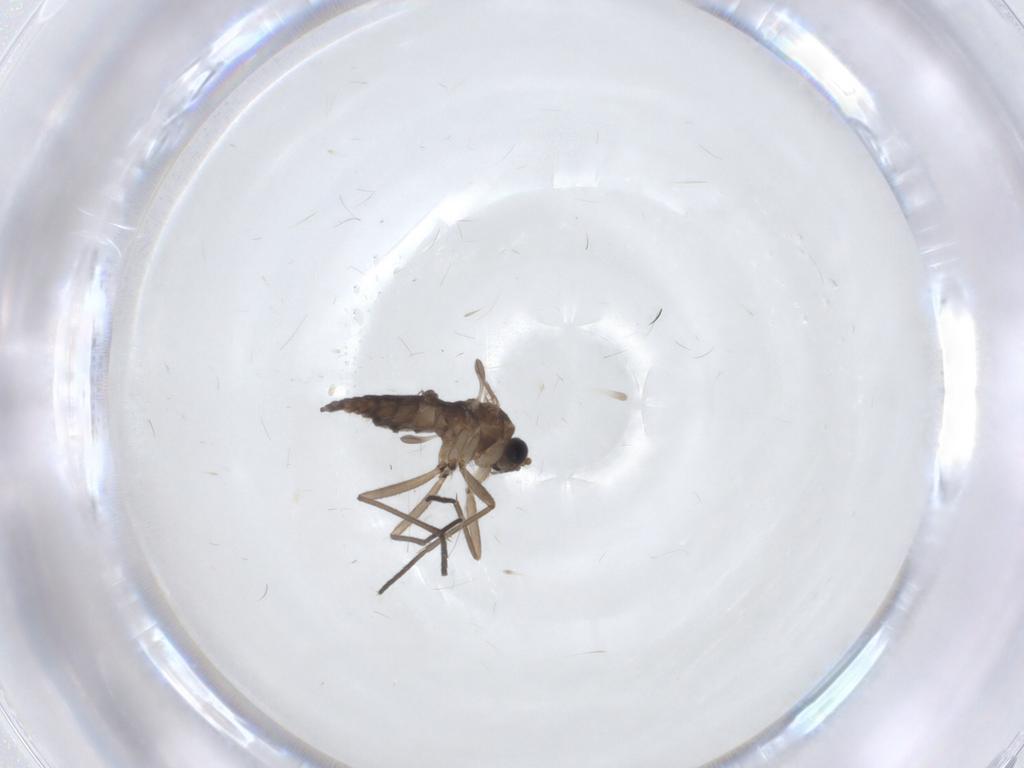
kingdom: Animalia
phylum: Arthropoda
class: Insecta
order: Diptera
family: Sciaridae
